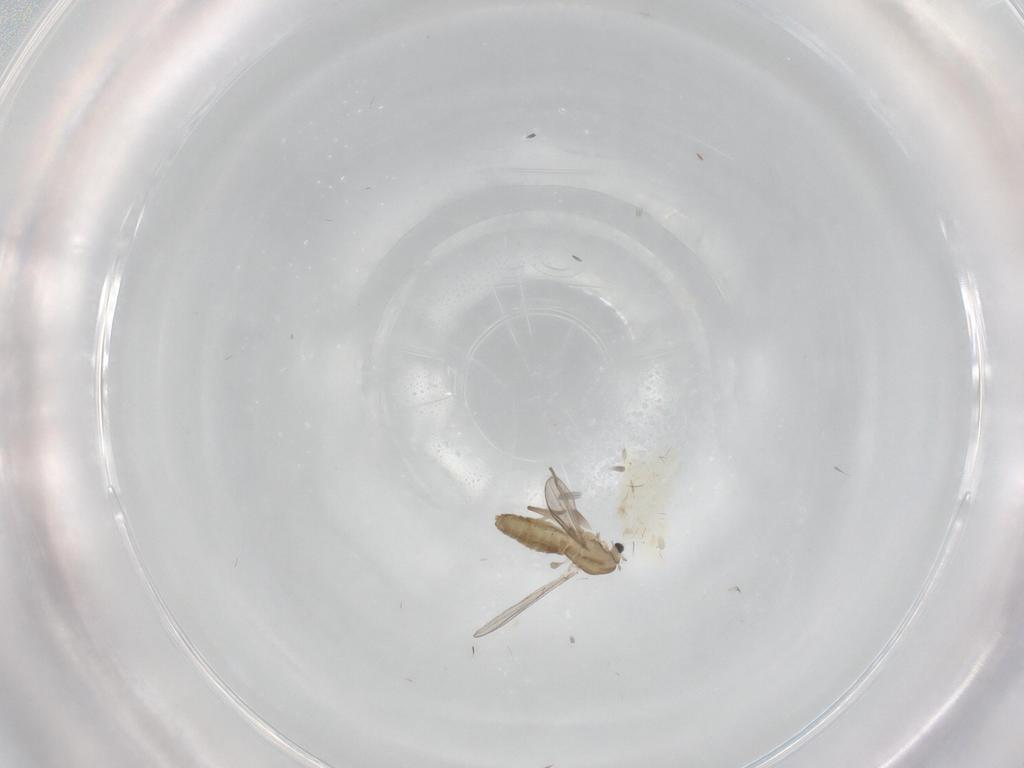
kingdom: Animalia
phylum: Arthropoda
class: Insecta
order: Diptera
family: Chironomidae
